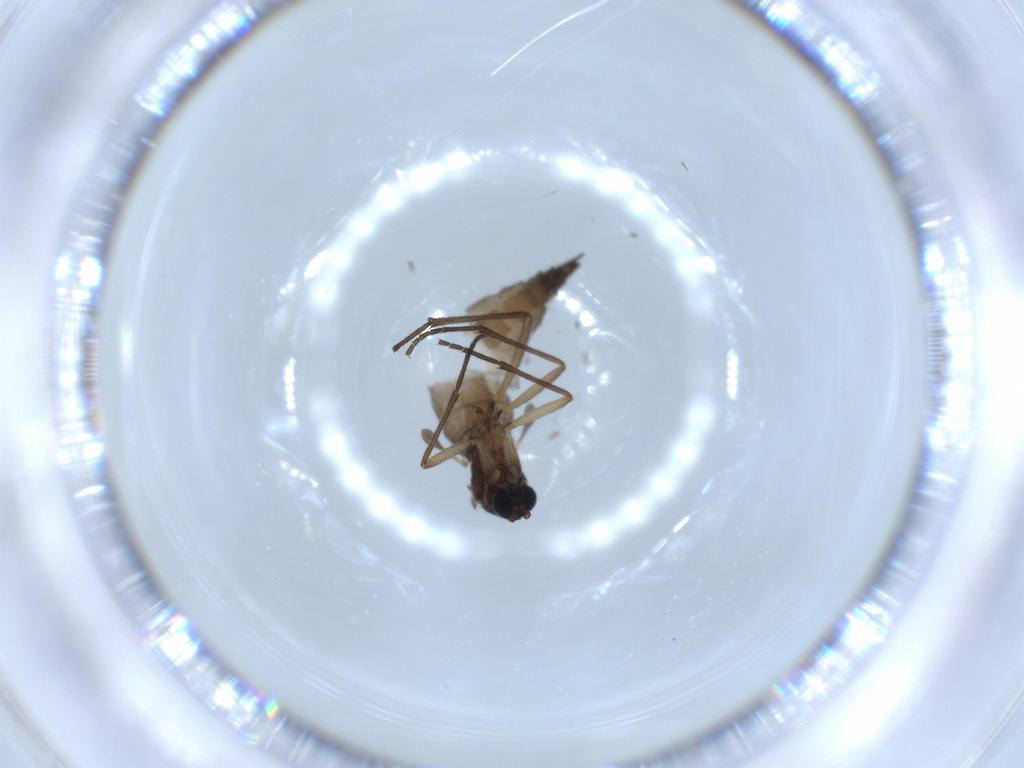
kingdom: Animalia
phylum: Arthropoda
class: Insecta
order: Diptera
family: Sciaridae
